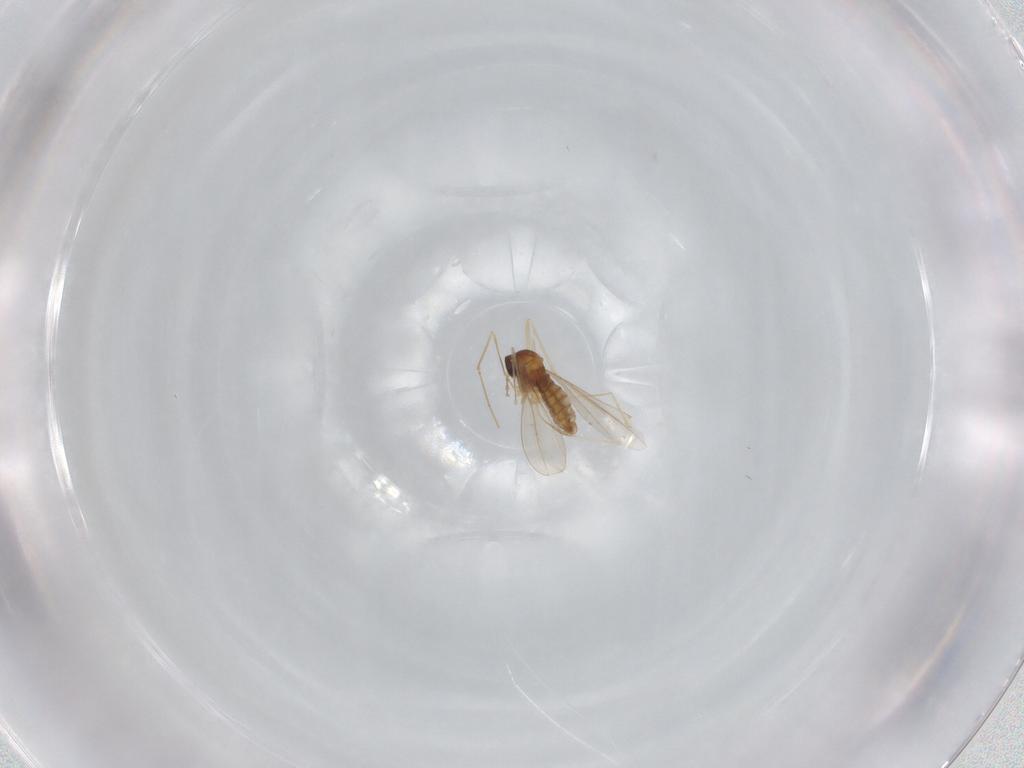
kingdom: Animalia
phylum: Arthropoda
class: Insecta
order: Diptera
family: Cecidomyiidae
